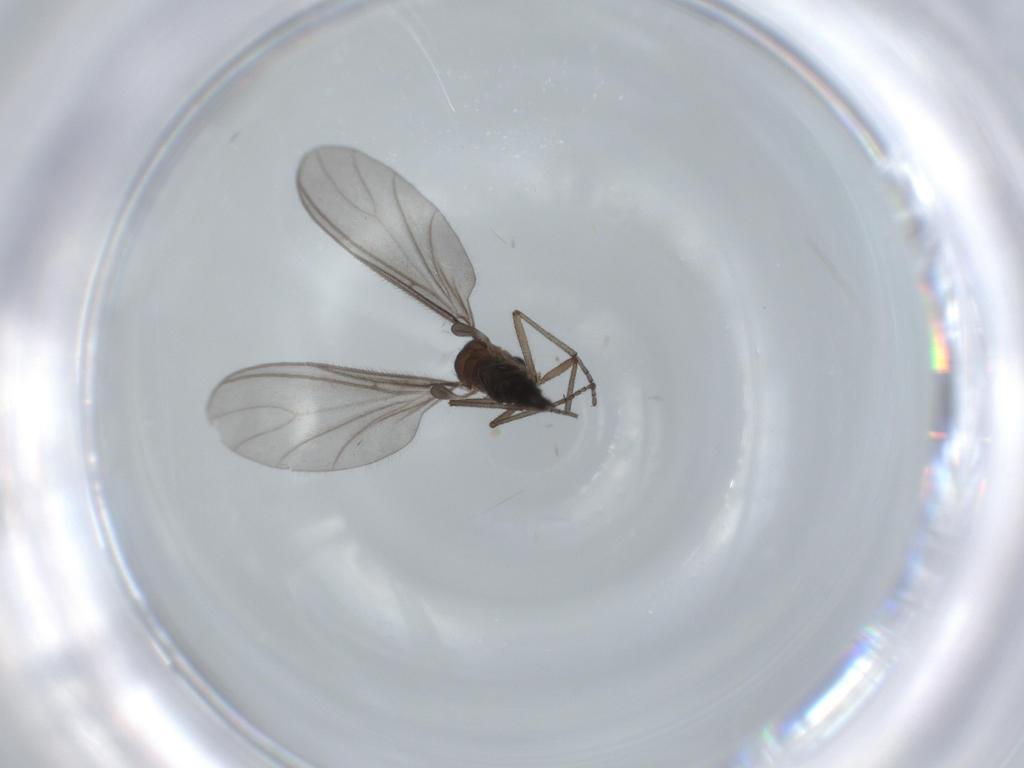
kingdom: Animalia
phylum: Arthropoda
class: Insecta
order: Diptera
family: Sciaridae
